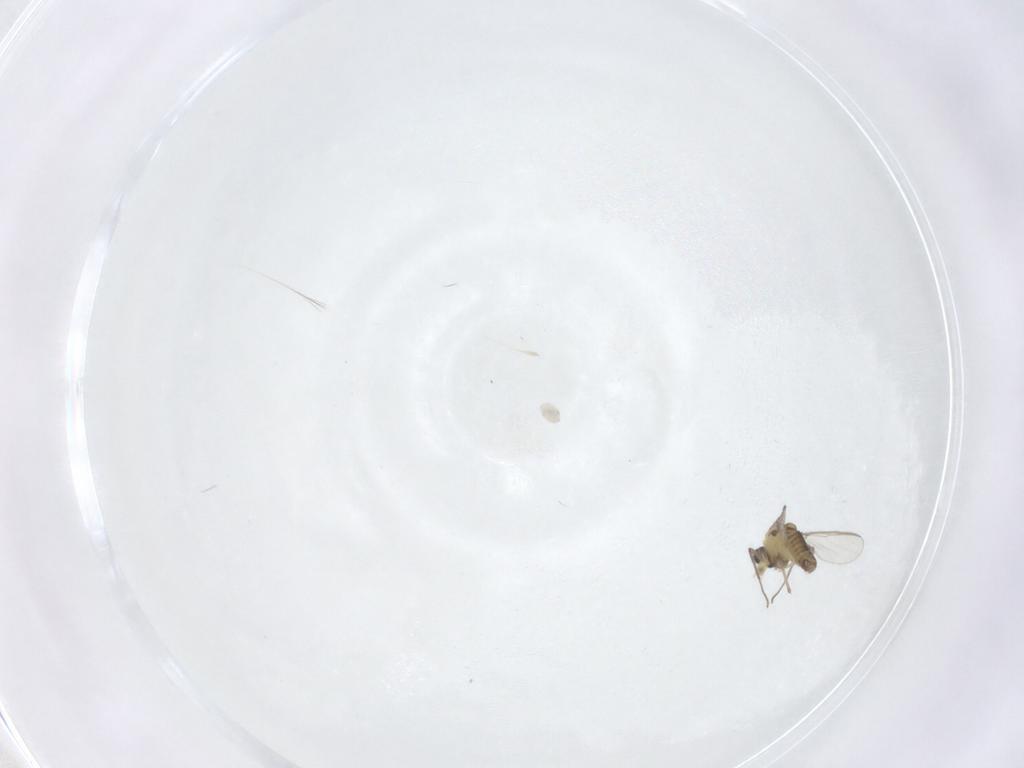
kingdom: Animalia
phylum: Arthropoda
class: Insecta
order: Diptera
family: Chironomidae
